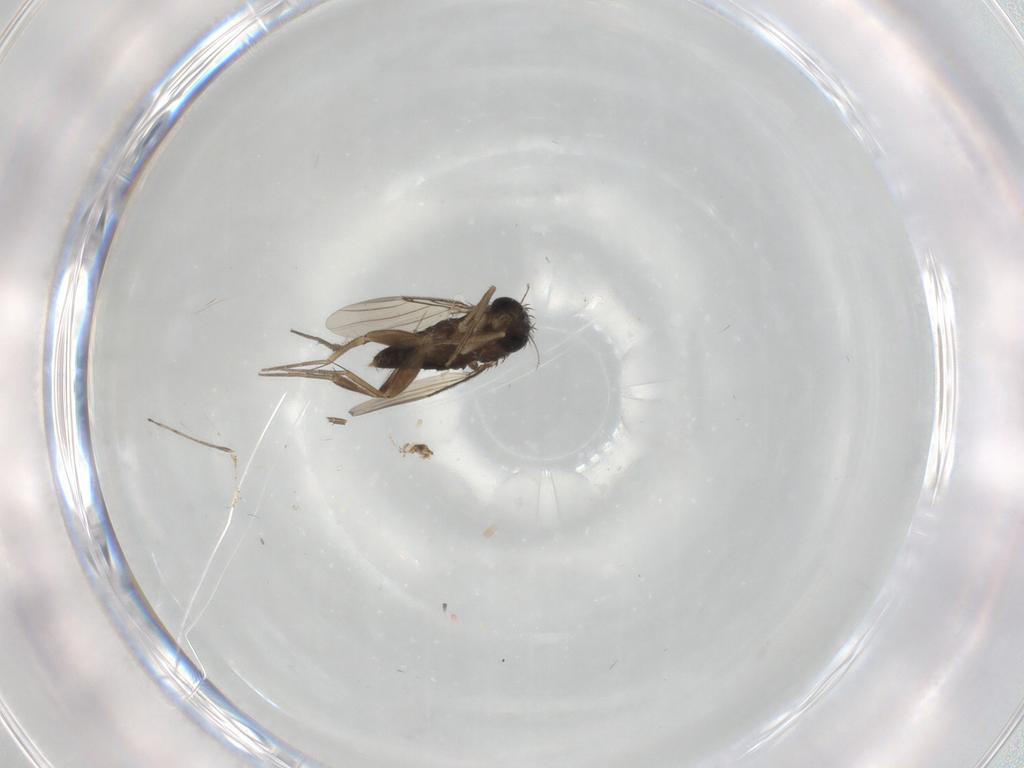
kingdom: Animalia
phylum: Arthropoda
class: Insecta
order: Diptera
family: Phoridae
